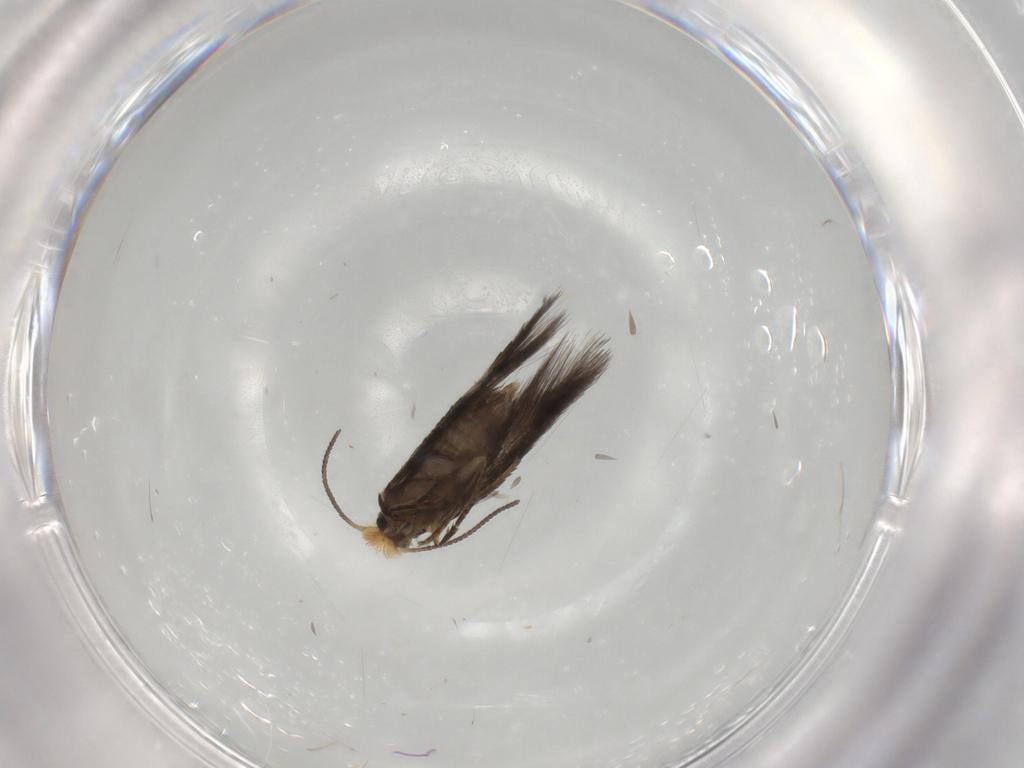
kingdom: Animalia
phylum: Arthropoda
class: Insecta
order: Lepidoptera
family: Nepticulidae
